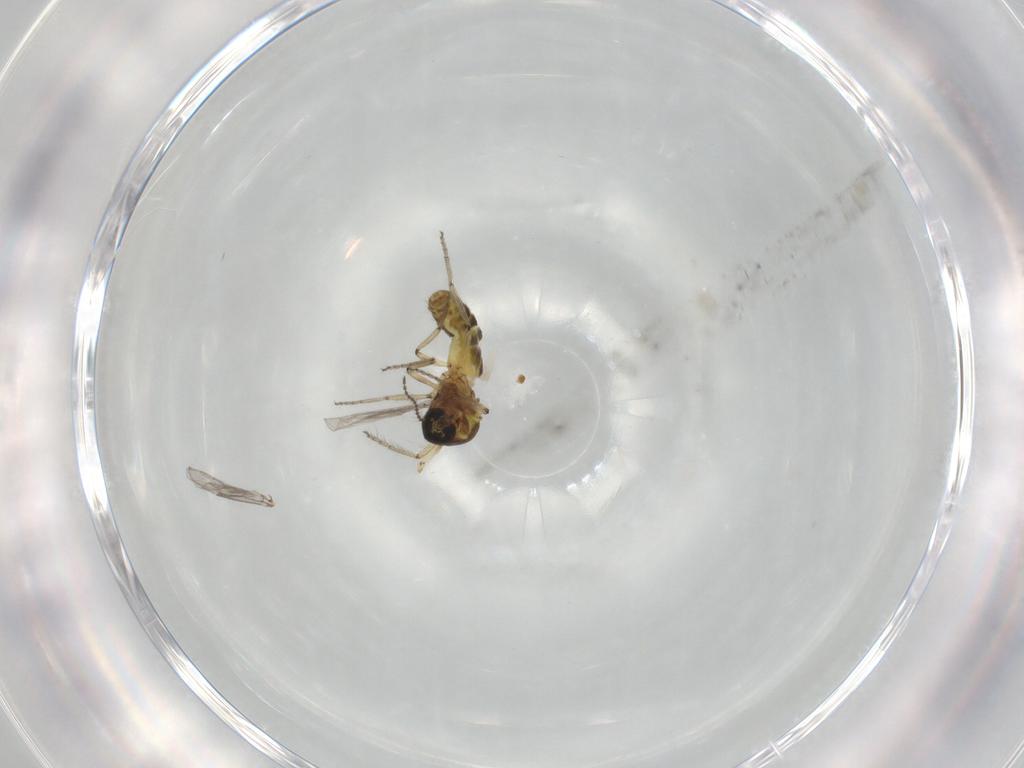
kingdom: Animalia
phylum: Arthropoda
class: Insecta
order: Diptera
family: Ceratopogonidae
